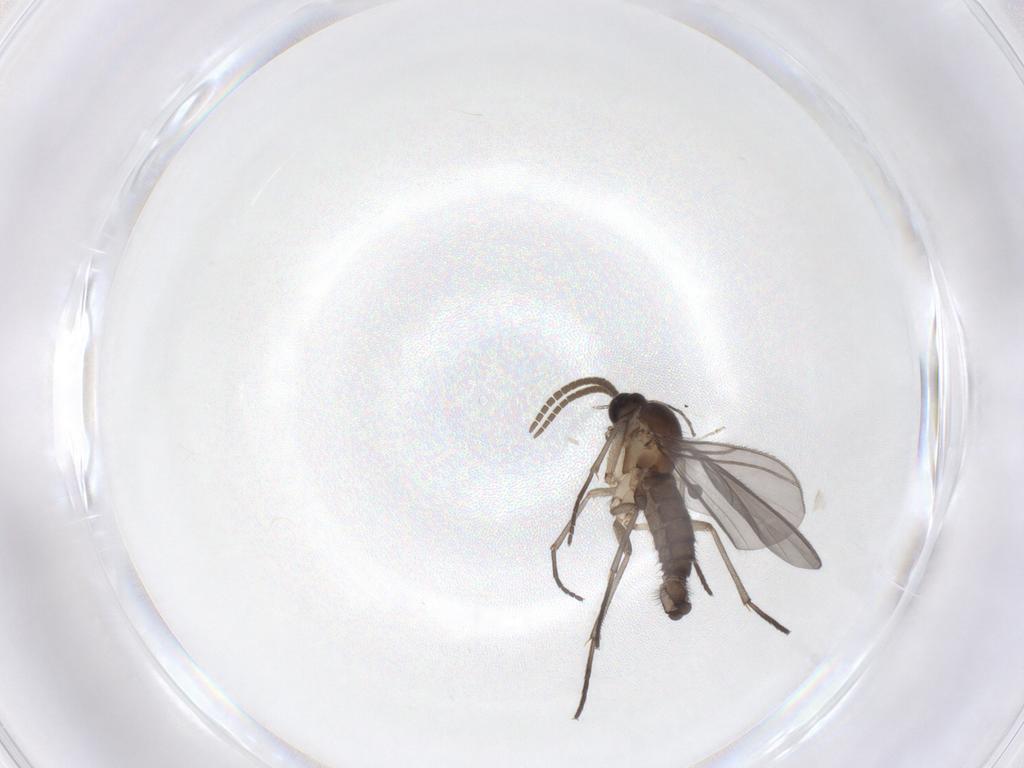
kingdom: Animalia
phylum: Arthropoda
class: Insecta
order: Diptera
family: Cecidomyiidae
